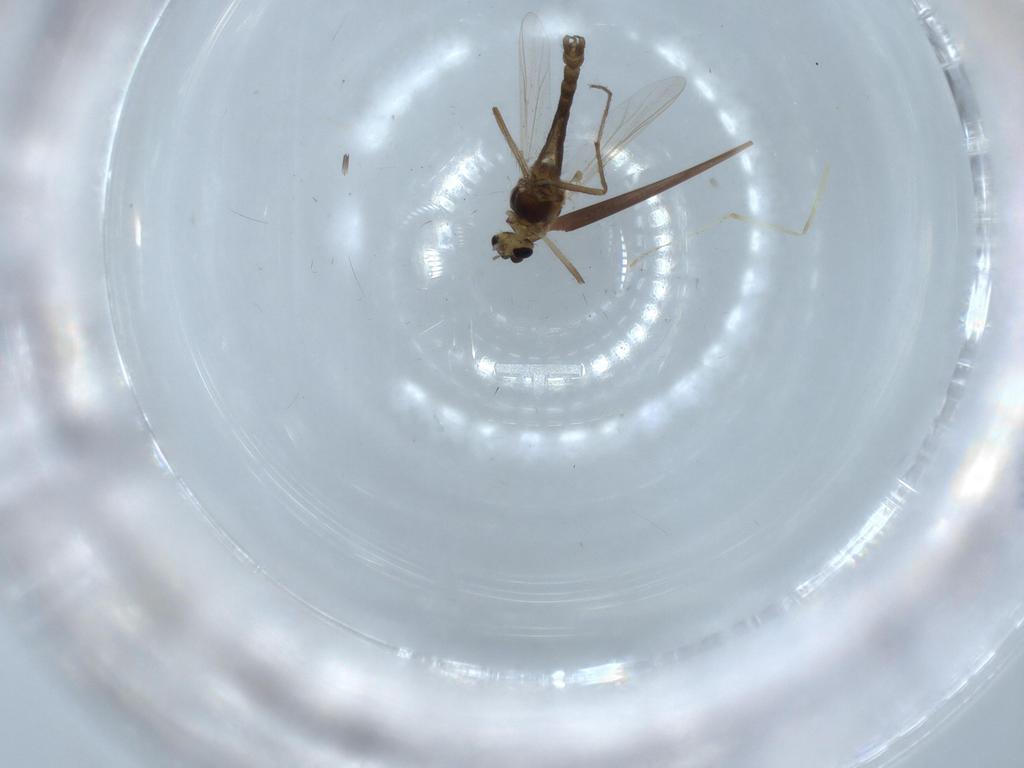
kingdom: Animalia
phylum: Arthropoda
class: Insecta
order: Diptera
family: Chironomidae
